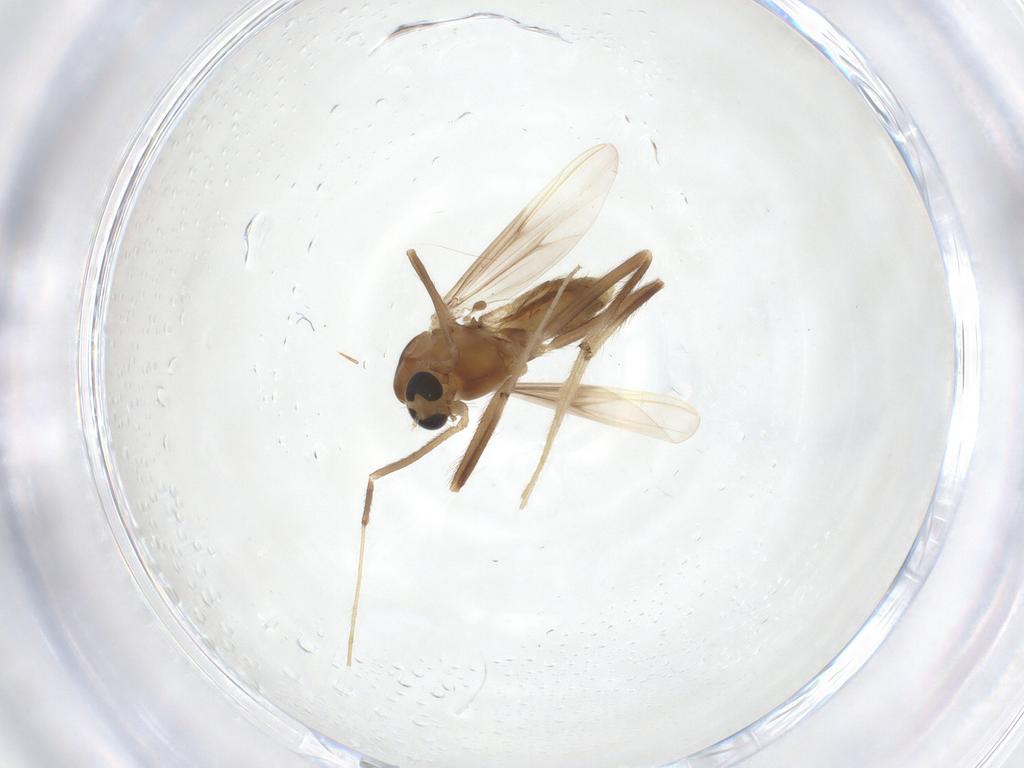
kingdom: Animalia
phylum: Arthropoda
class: Insecta
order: Diptera
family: Chironomidae
